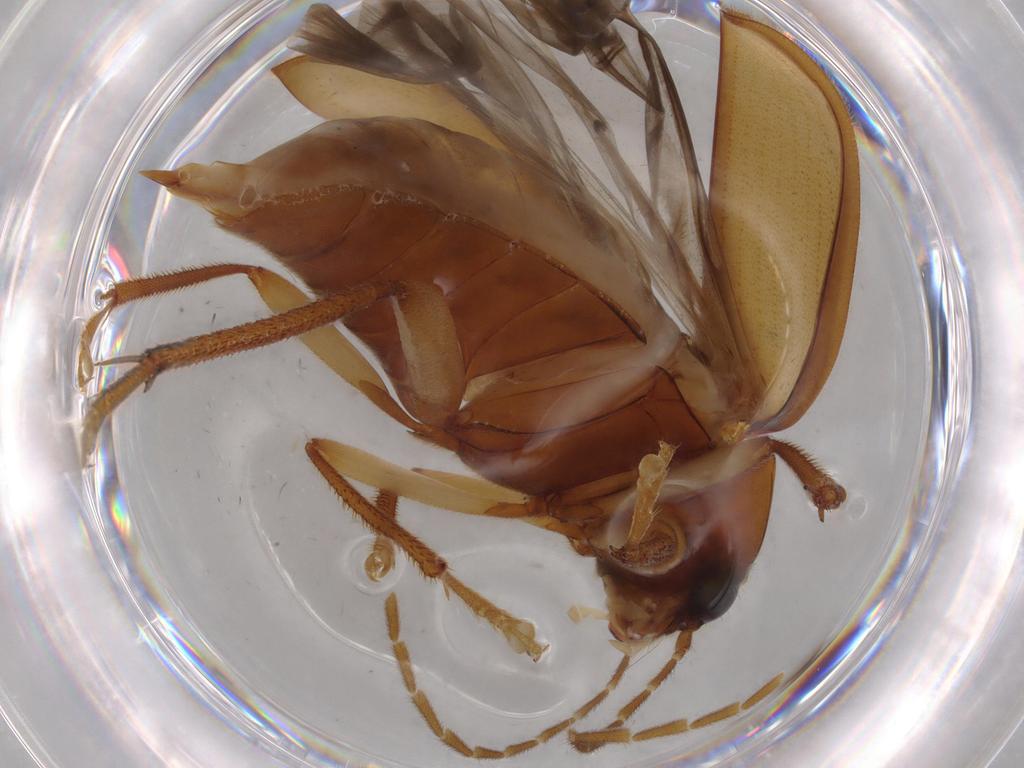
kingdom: Animalia
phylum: Arthropoda
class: Insecta
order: Coleoptera
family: Ptilodactylidae
